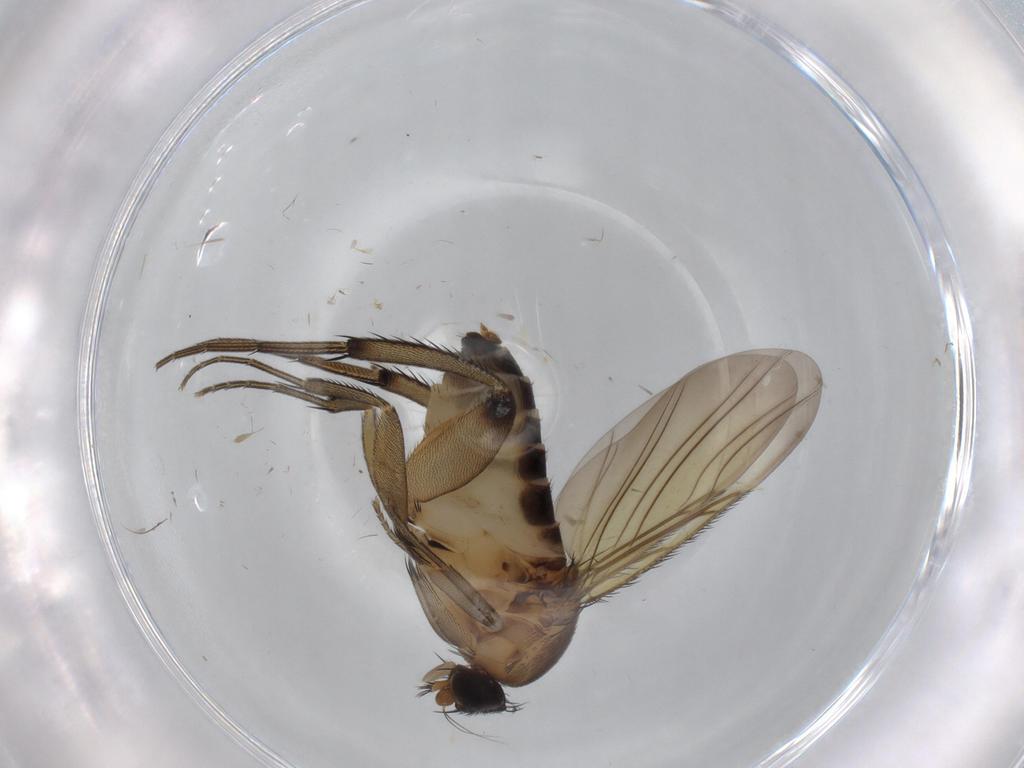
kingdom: Animalia
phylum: Arthropoda
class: Insecta
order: Diptera
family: Phoridae
